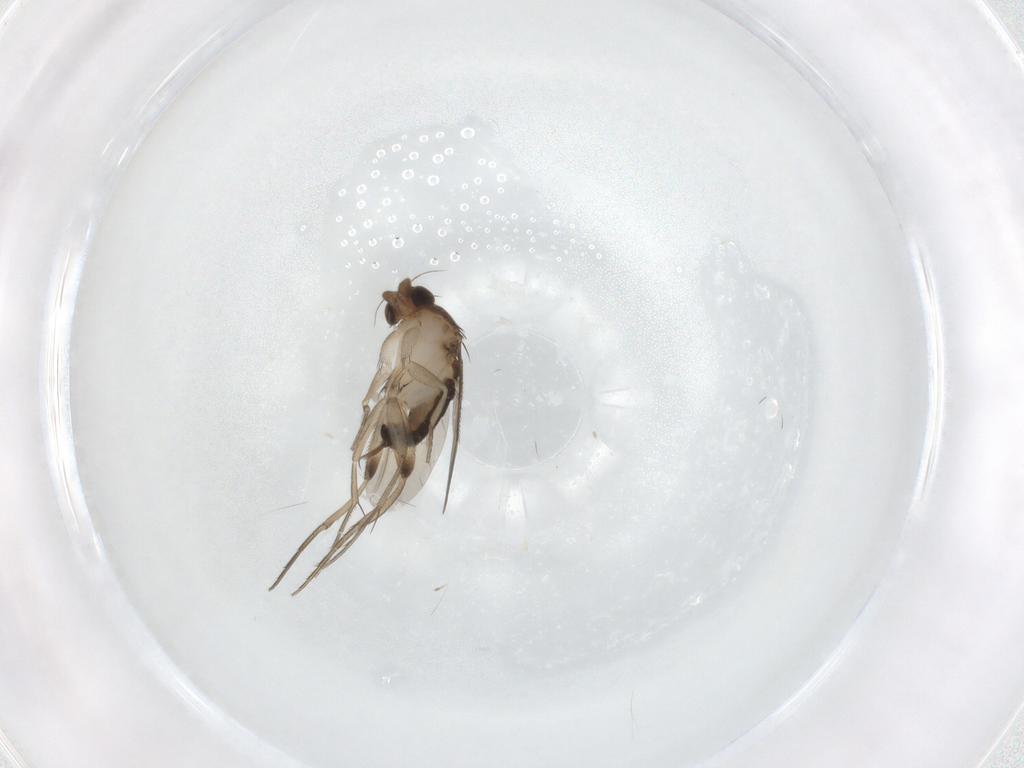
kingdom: Animalia
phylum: Arthropoda
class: Insecta
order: Diptera
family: Phoridae
